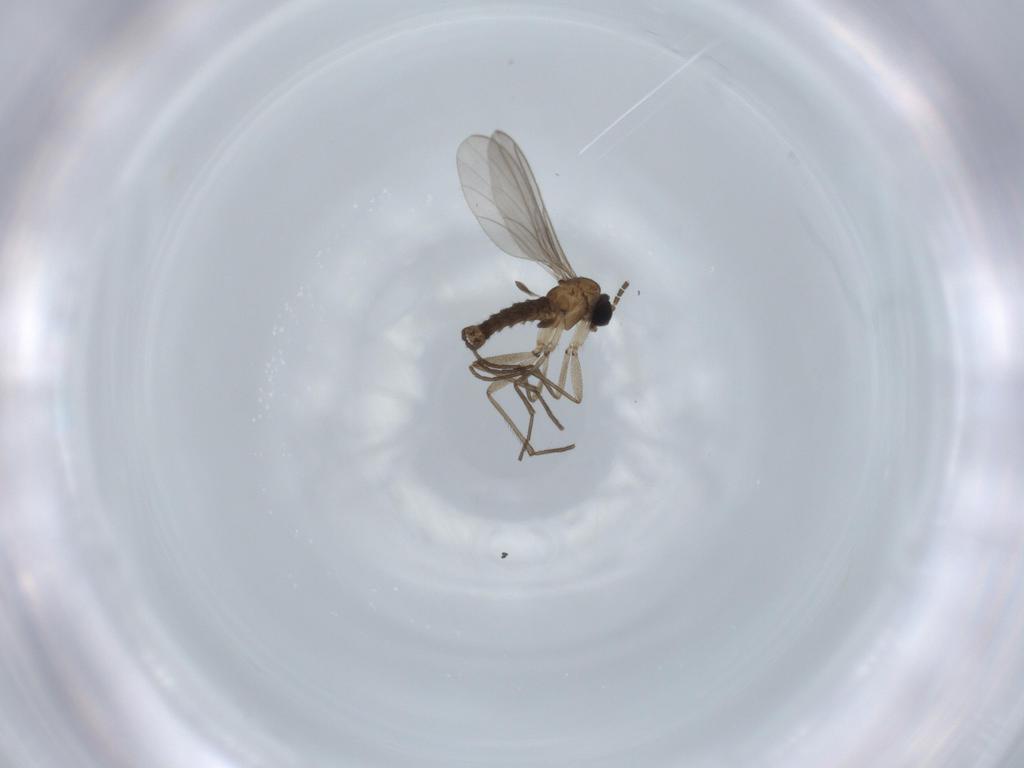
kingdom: Animalia
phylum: Arthropoda
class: Insecta
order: Diptera
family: Sciaridae
